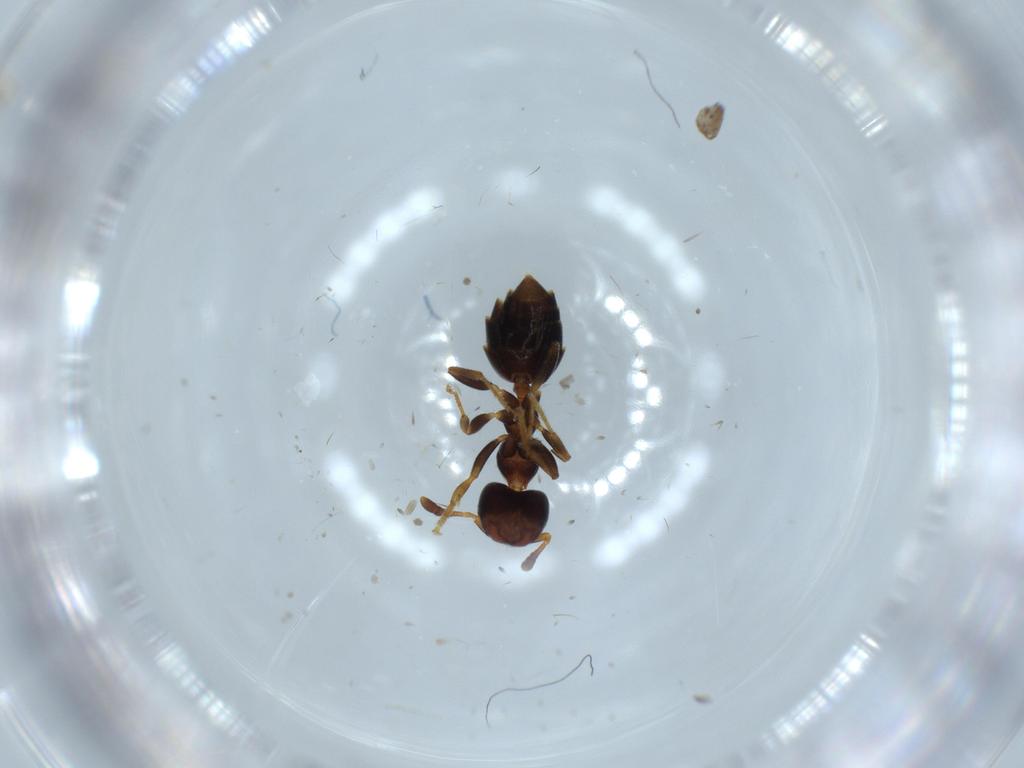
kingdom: Animalia
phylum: Arthropoda
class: Insecta
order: Hymenoptera
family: Formicidae
